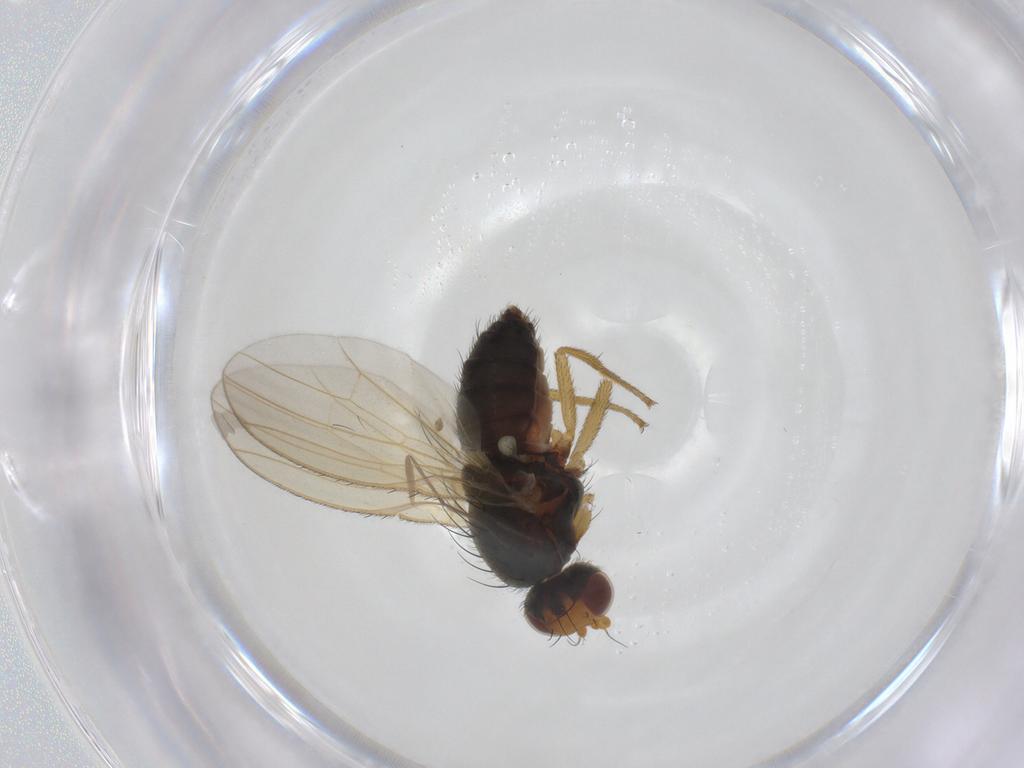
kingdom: Animalia
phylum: Arthropoda
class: Insecta
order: Diptera
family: Heleomyzidae
